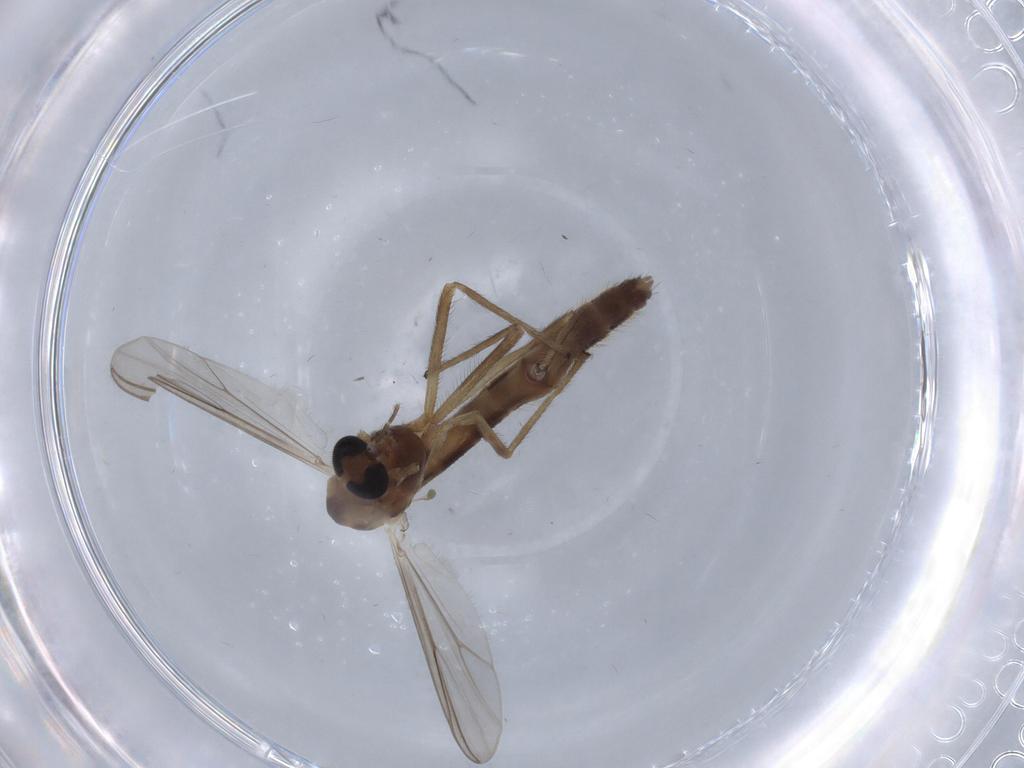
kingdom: Animalia
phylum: Arthropoda
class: Insecta
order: Diptera
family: Chironomidae
